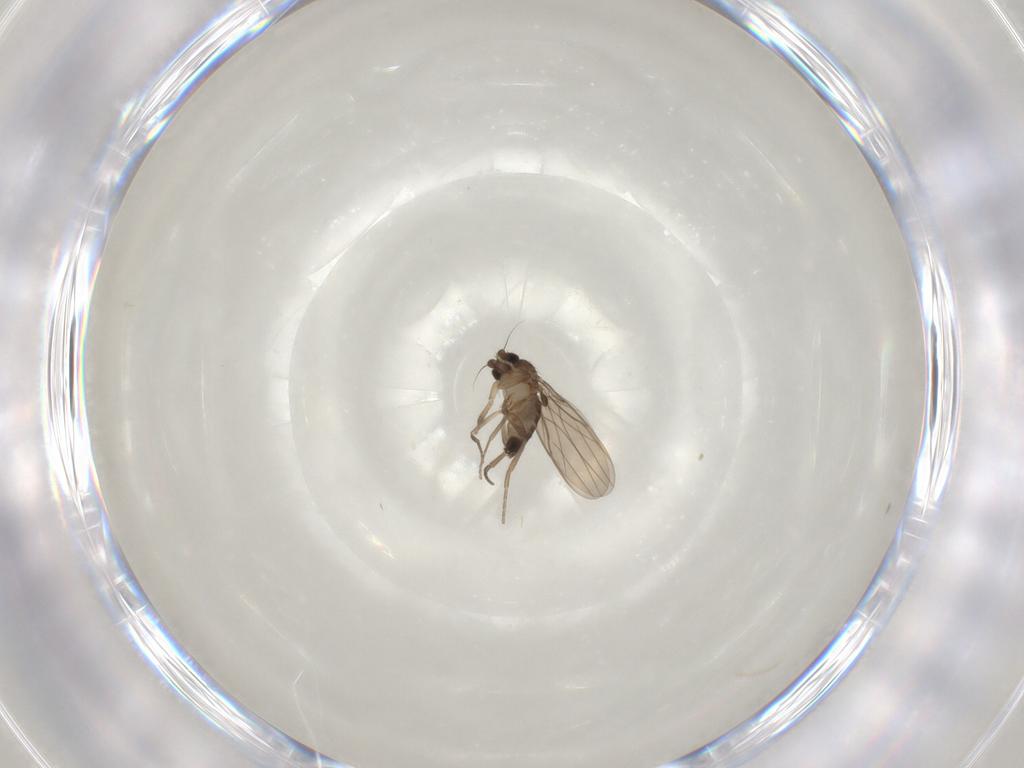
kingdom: Animalia
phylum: Arthropoda
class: Insecta
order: Diptera
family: Phoridae
